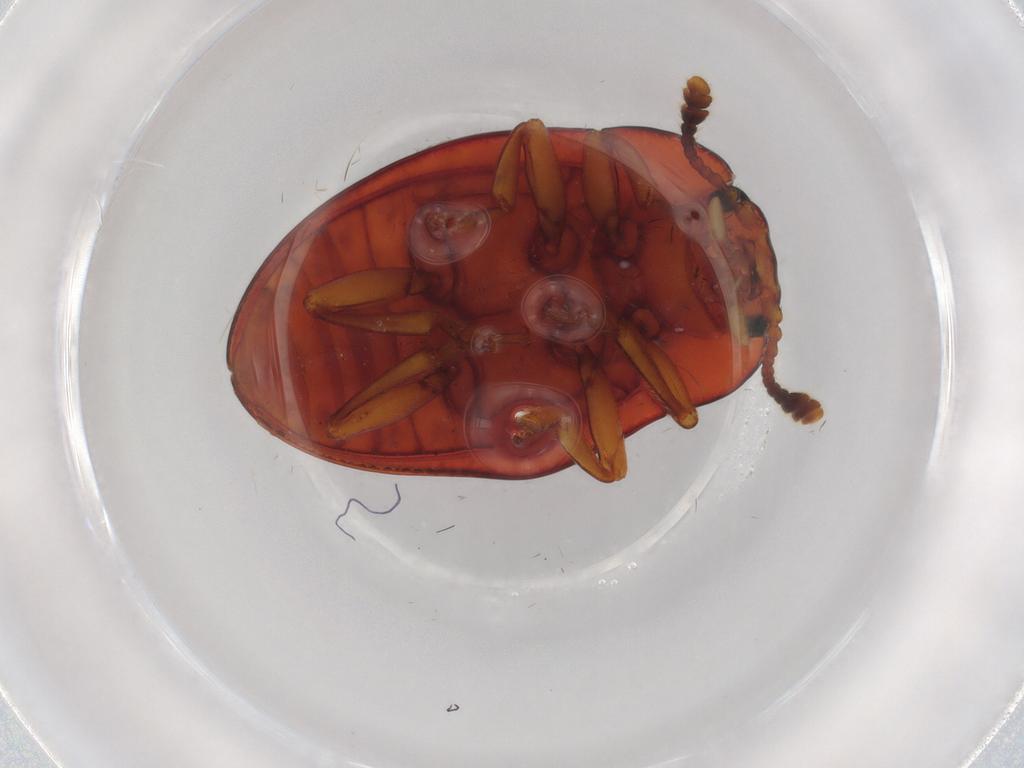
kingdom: Animalia
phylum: Arthropoda
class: Insecta
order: Coleoptera
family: Erotylidae
